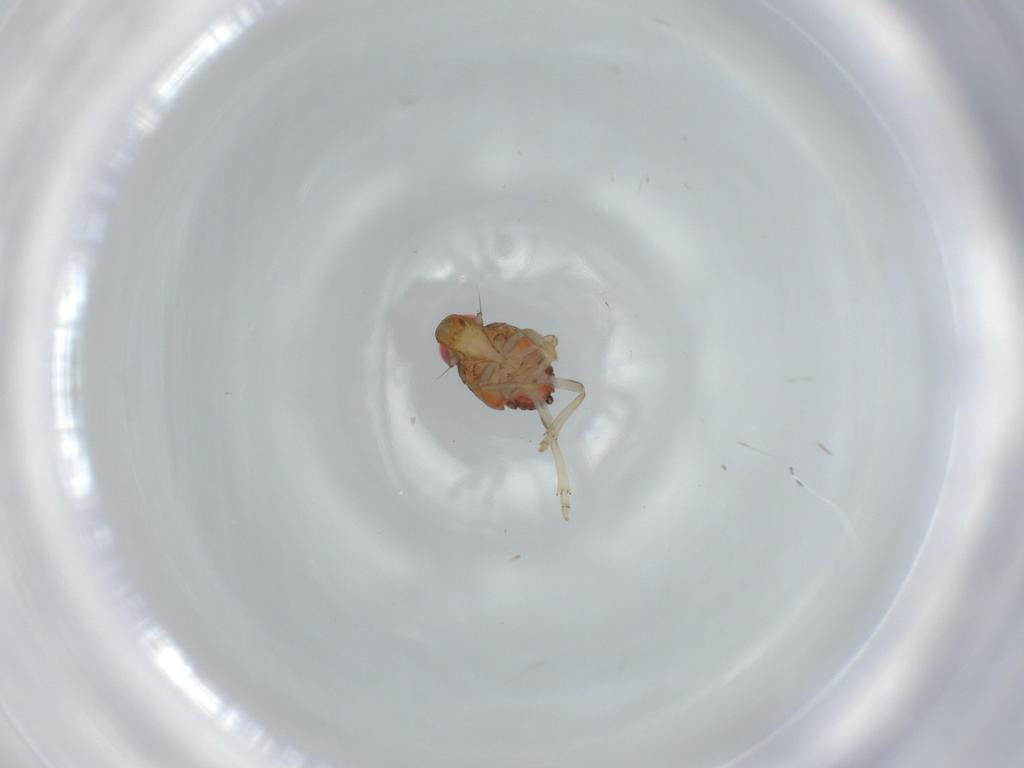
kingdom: Animalia
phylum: Arthropoda
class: Insecta
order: Hemiptera
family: Issidae
